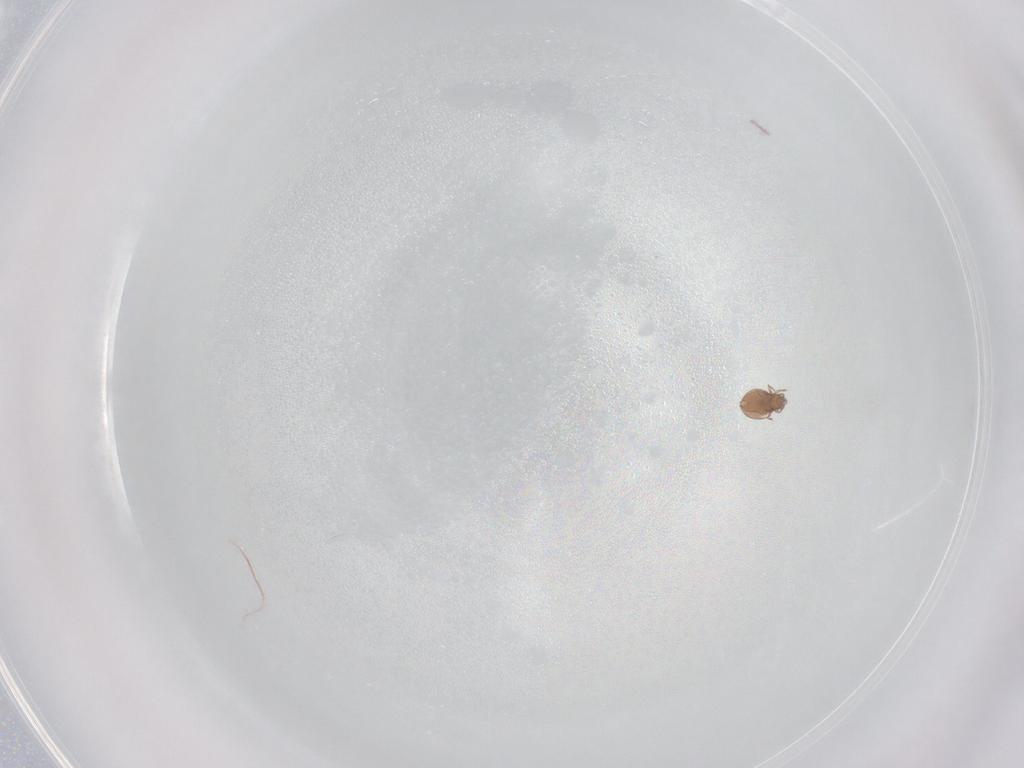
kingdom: Animalia
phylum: Arthropoda
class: Arachnida
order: Sarcoptiformes
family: Oribatulidae
